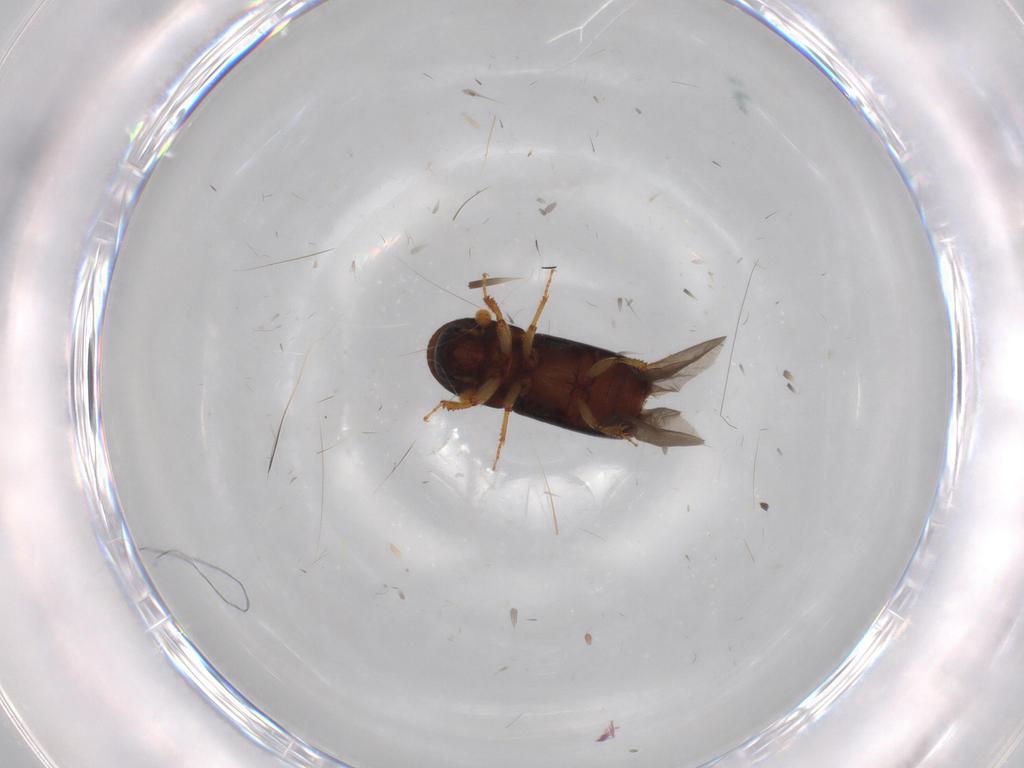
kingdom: Animalia
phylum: Arthropoda
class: Insecta
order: Coleoptera
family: Curculionidae
